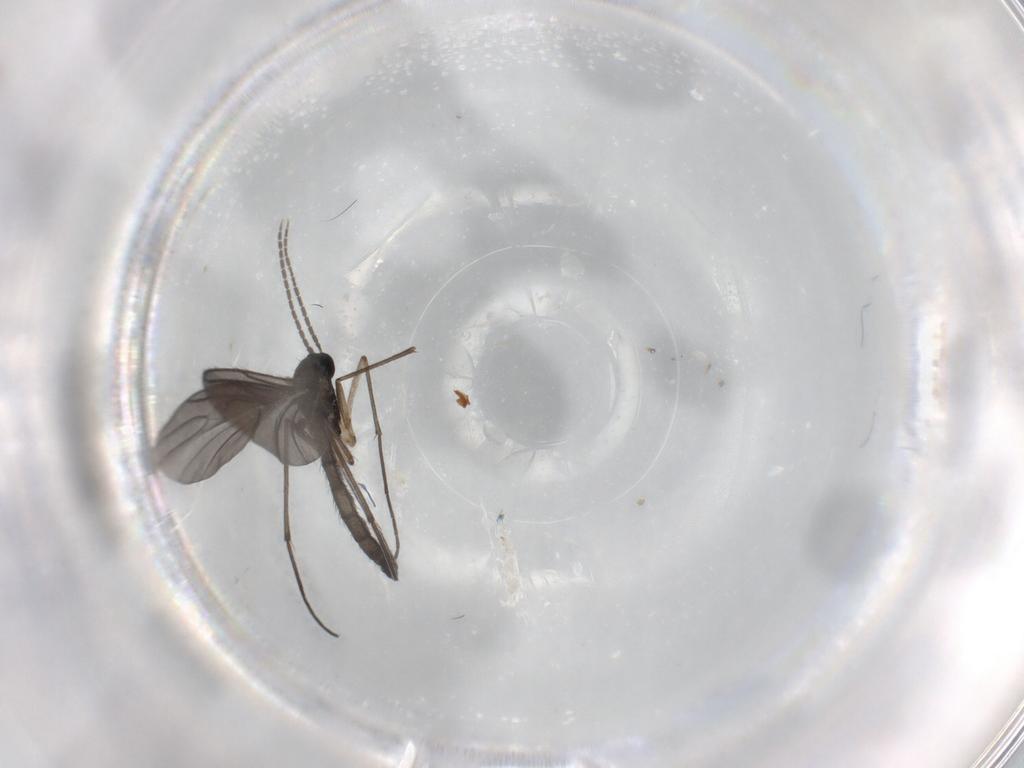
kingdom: Animalia
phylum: Arthropoda
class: Insecta
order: Diptera
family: Sciaridae
